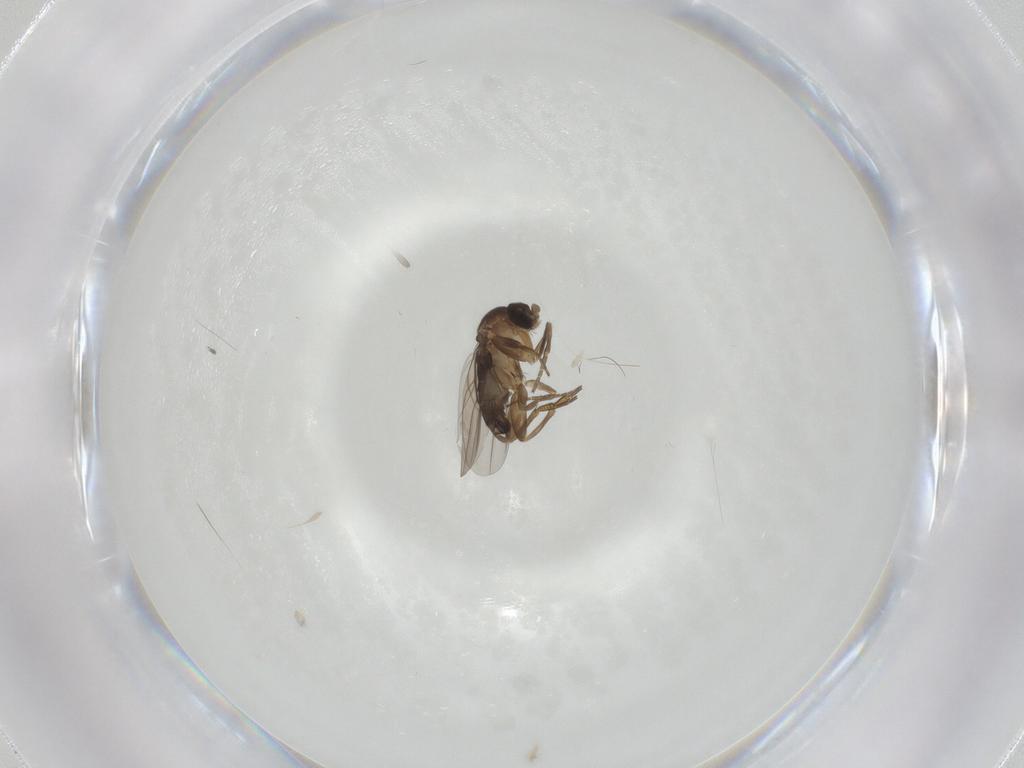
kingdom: Animalia
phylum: Arthropoda
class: Insecta
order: Diptera
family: Phoridae
